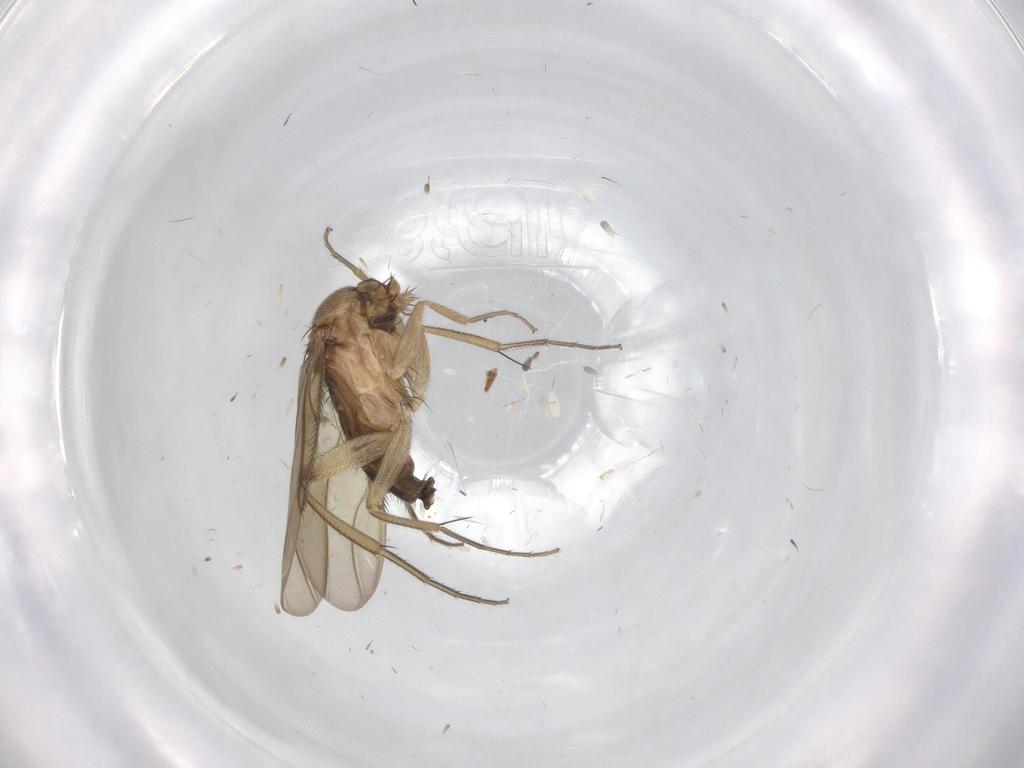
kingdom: Animalia
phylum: Arthropoda
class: Insecta
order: Diptera
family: Phoridae
